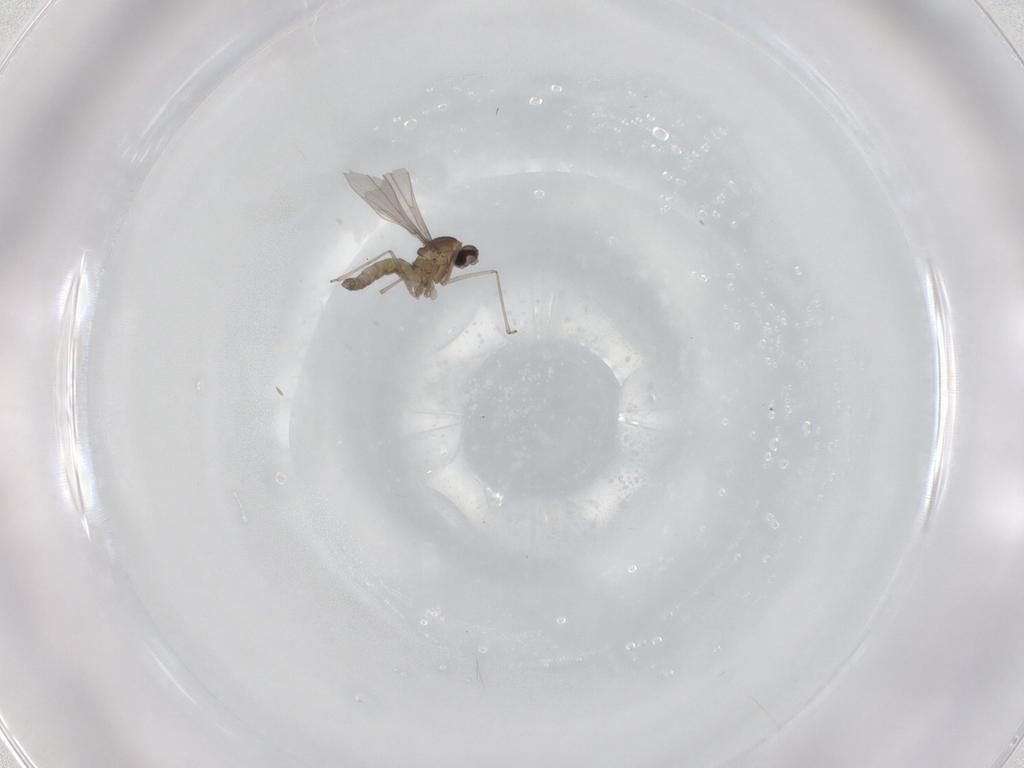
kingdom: Animalia
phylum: Arthropoda
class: Insecta
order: Diptera
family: Cecidomyiidae
